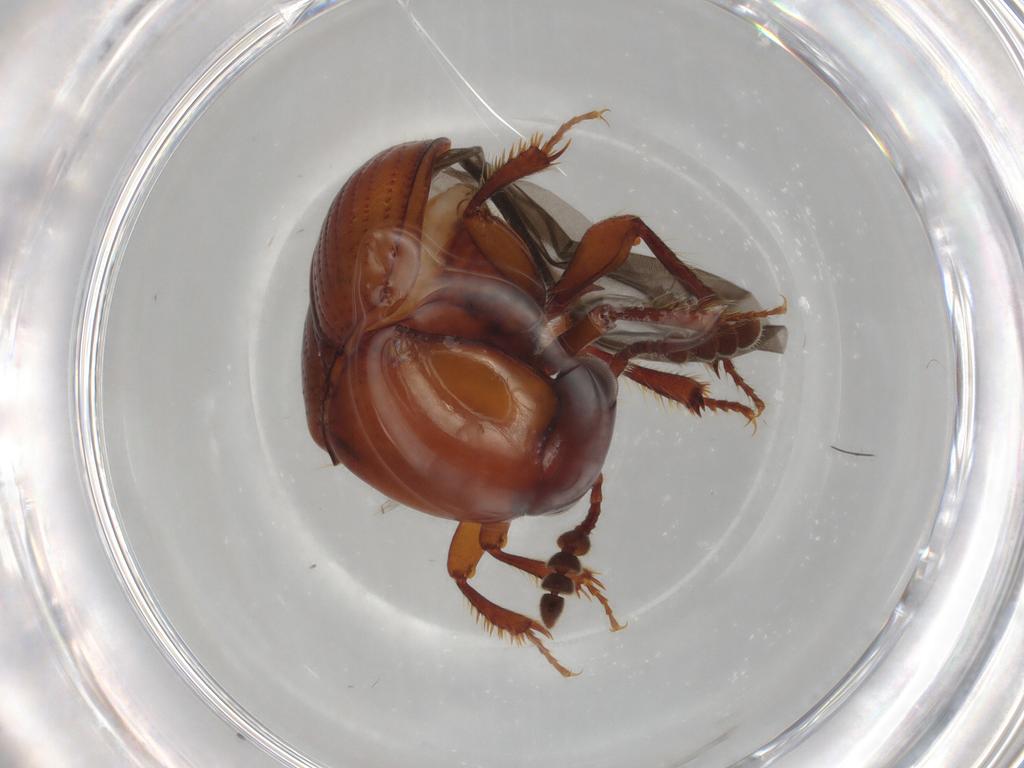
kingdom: Animalia
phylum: Arthropoda
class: Insecta
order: Coleoptera
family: Leiodidae
